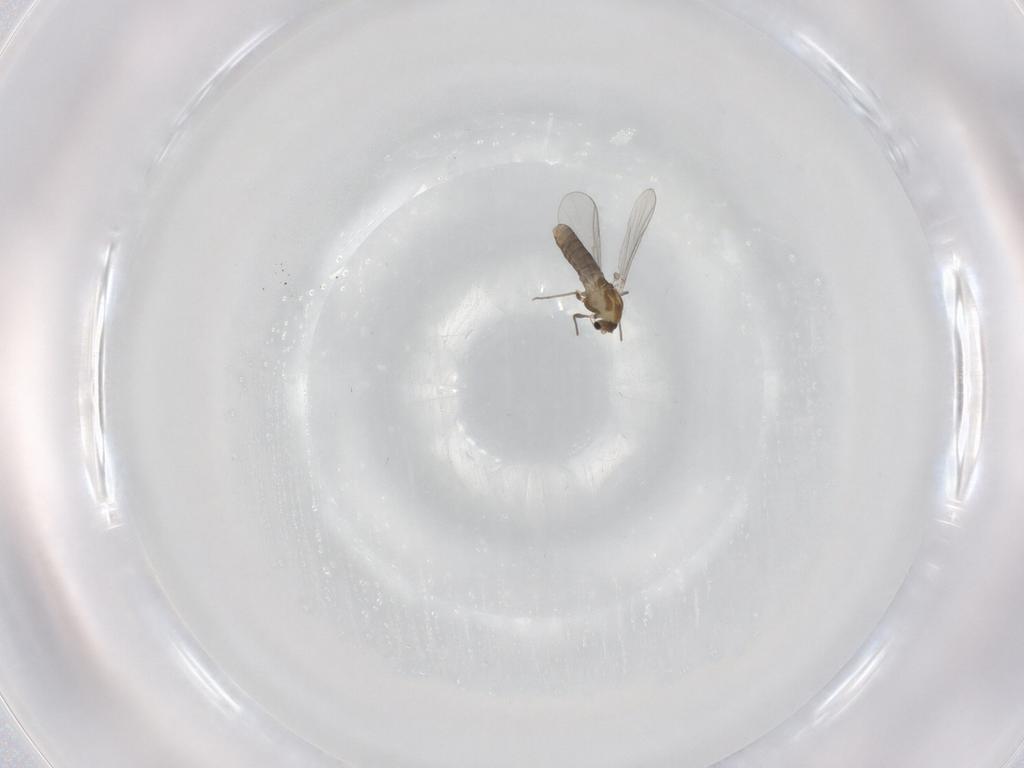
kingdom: Animalia
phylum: Arthropoda
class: Insecta
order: Diptera
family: Chironomidae
